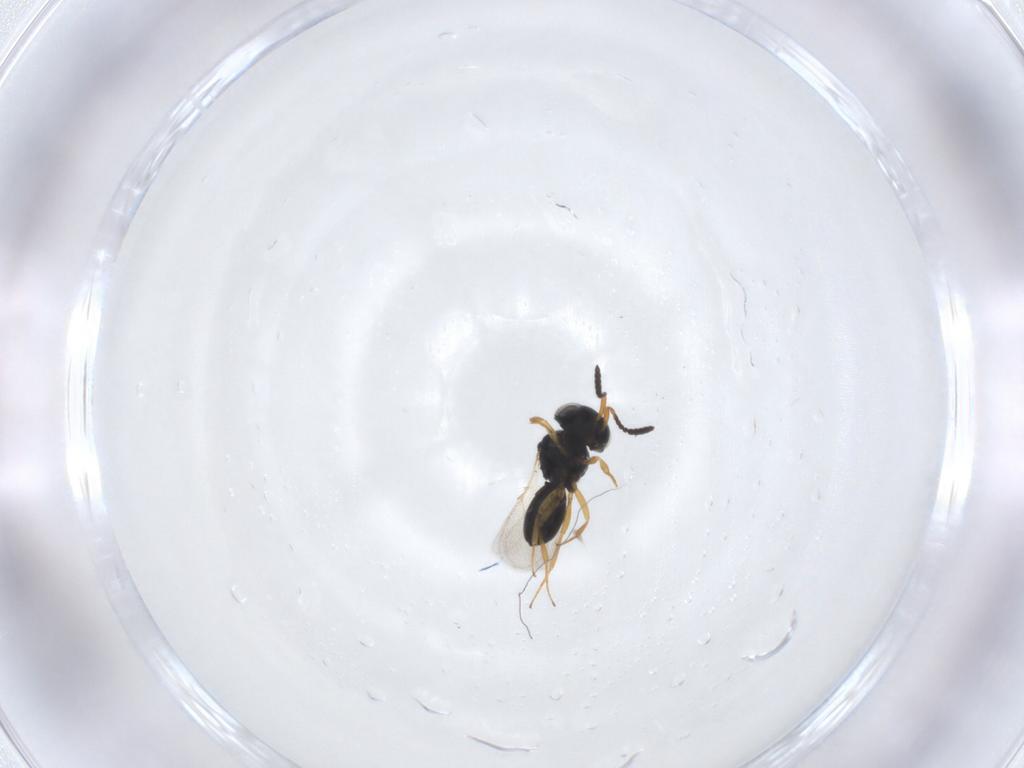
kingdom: Animalia
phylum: Arthropoda
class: Insecta
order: Hymenoptera
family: Scelionidae
